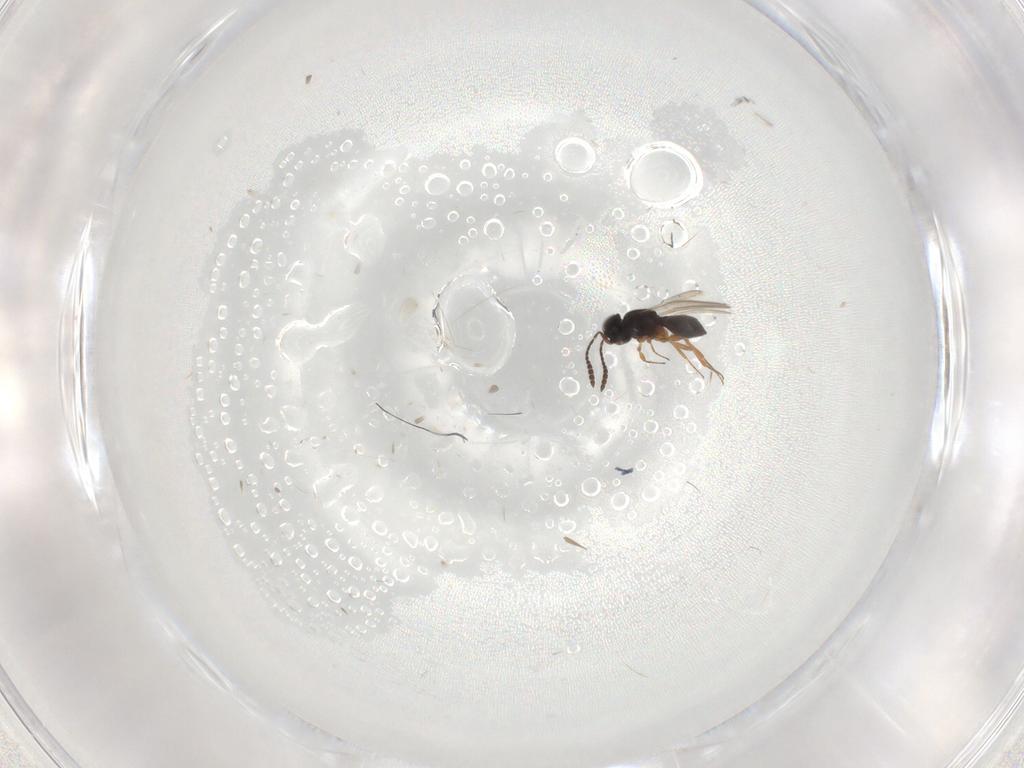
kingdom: Animalia
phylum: Arthropoda
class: Insecta
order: Hymenoptera
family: Scelionidae
